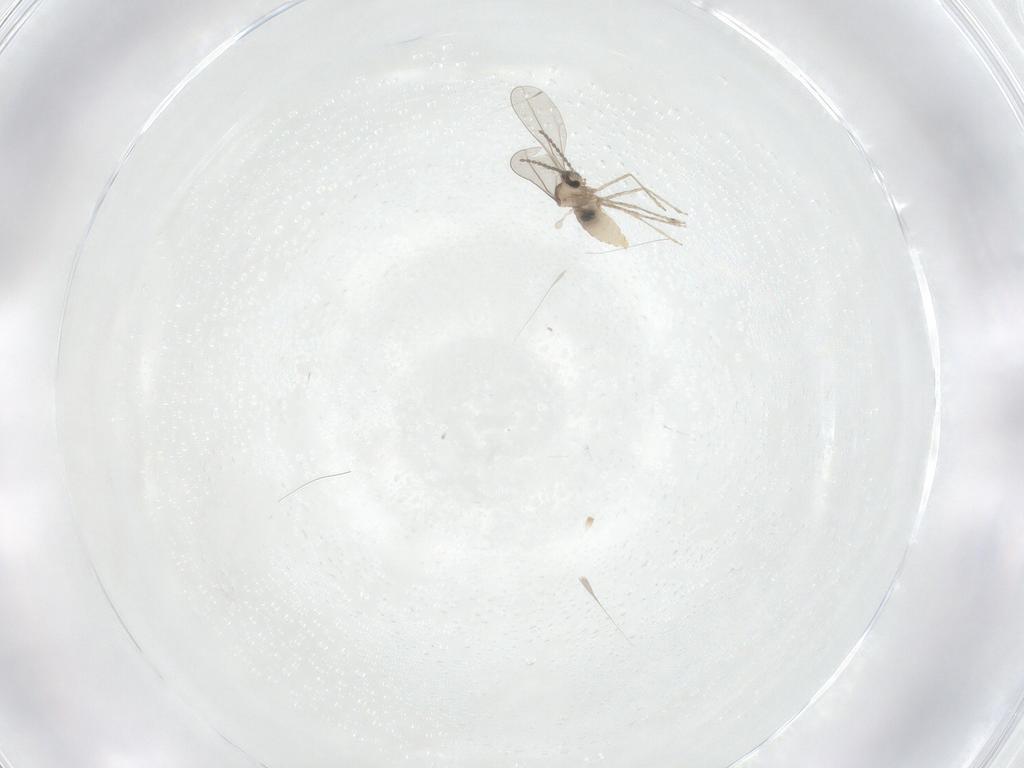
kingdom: Animalia
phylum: Arthropoda
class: Insecta
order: Diptera
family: Cecidomyiidae
